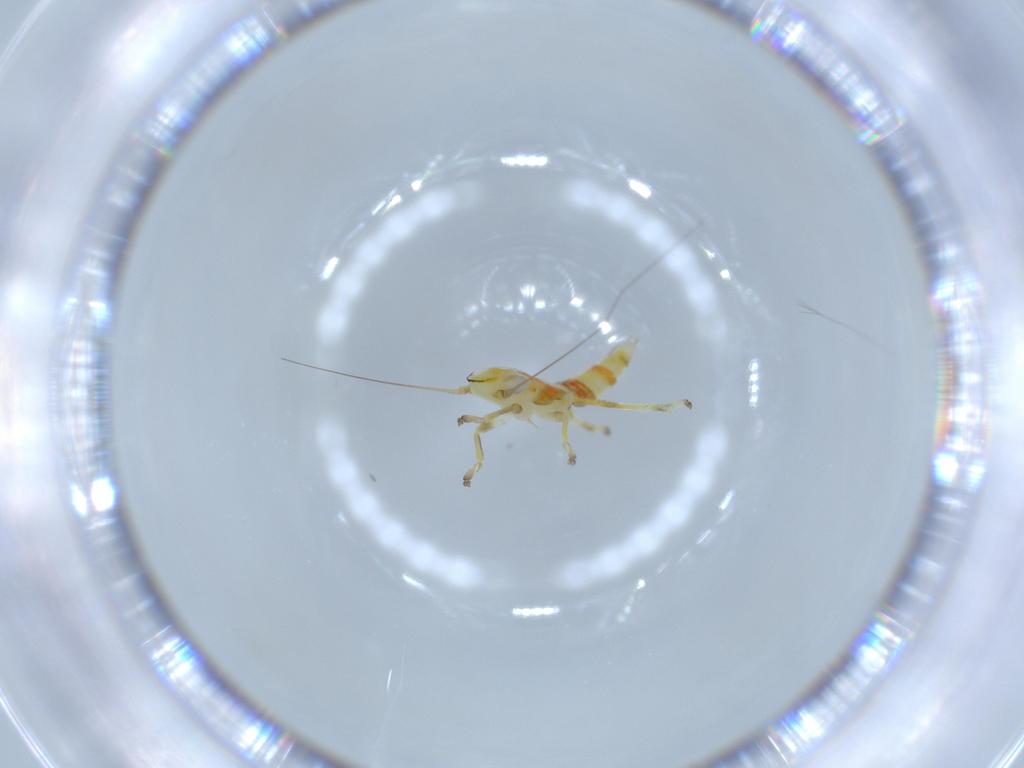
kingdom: Animalia
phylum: Arthropoda
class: Insecta
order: Hemiptera
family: Cicadellidae
